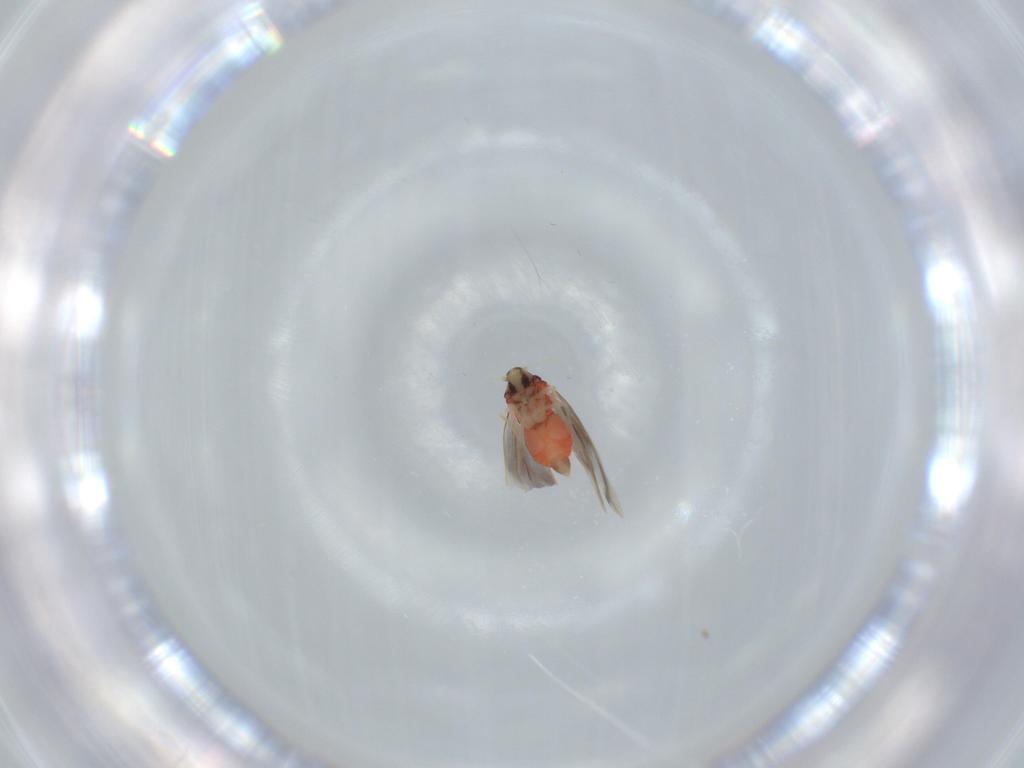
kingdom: Animalia
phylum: Arthropoda
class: Insecta
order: Hemiptera
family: Aleyrodidae
